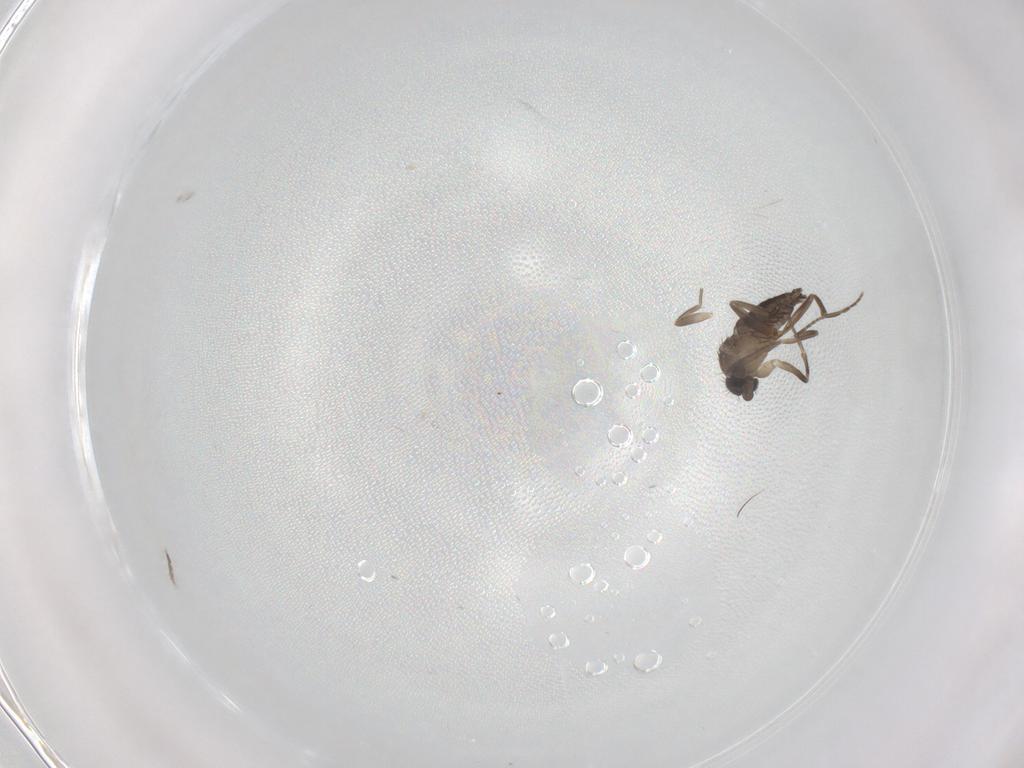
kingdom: Animalia
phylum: Arthropoda
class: Insecta
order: Diptera
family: Phoridae
